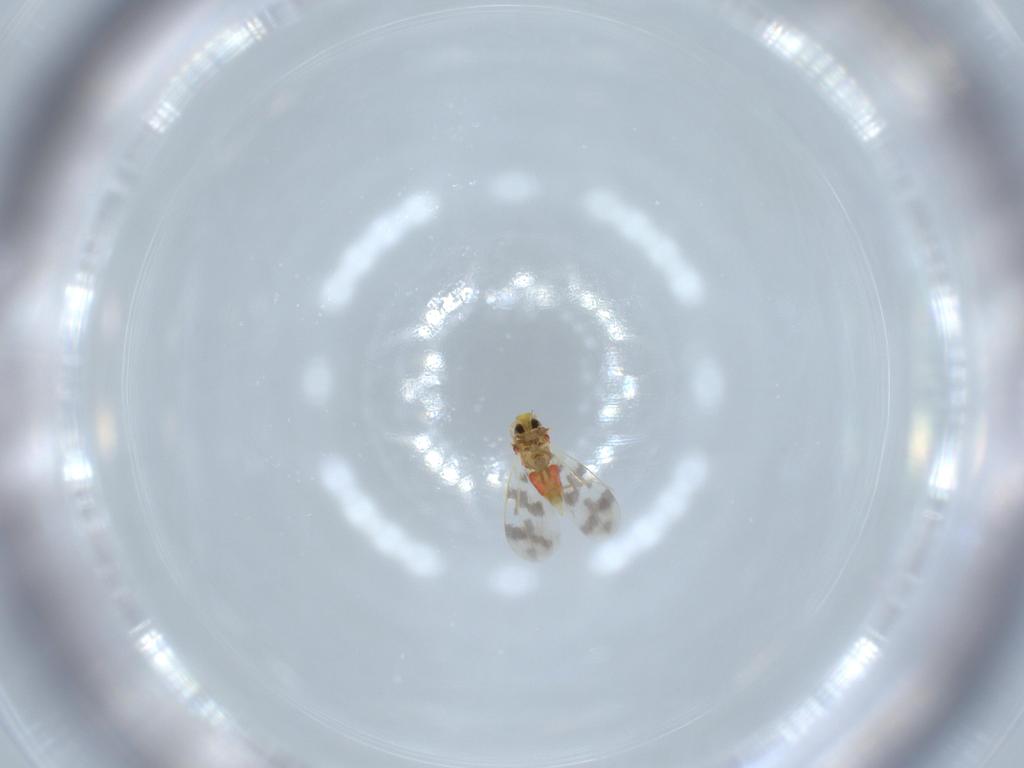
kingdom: Animalia
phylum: Arthropoda
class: Insecta
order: Hemiptera
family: Aleyrodidae
